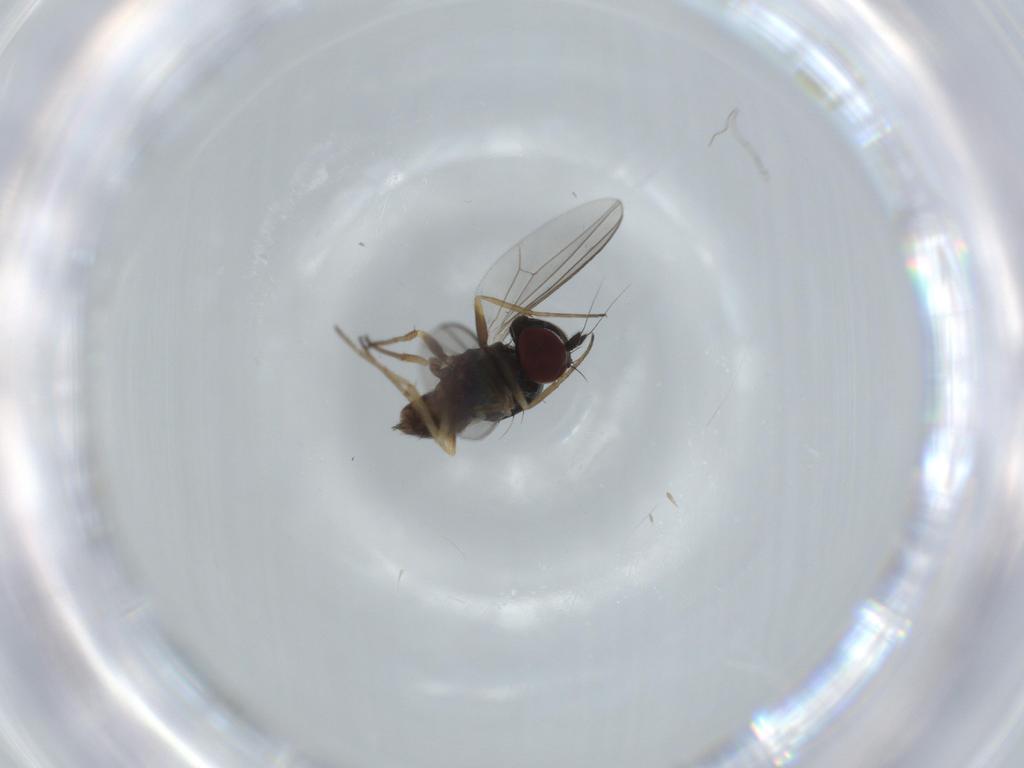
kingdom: Animalia
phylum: Arthropoda
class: Insecta
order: Diptera
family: Dolichopodidae
